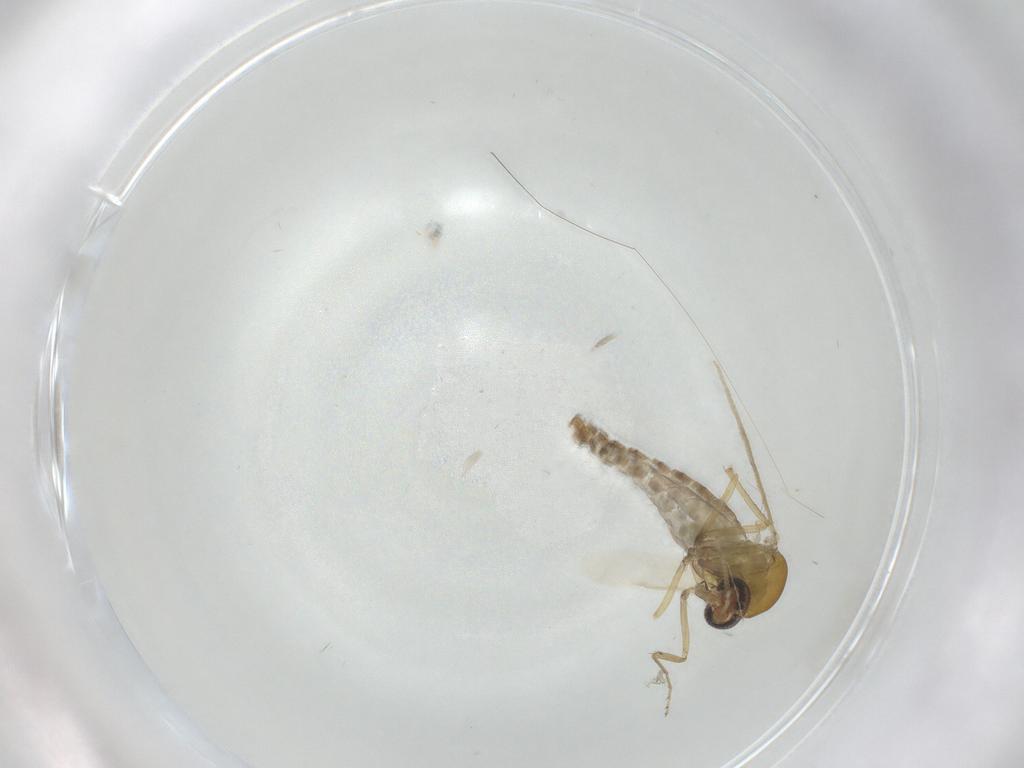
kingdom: Animalia
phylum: Arthropoda
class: Insecta
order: Lepidoptera
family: Gelechiidae
